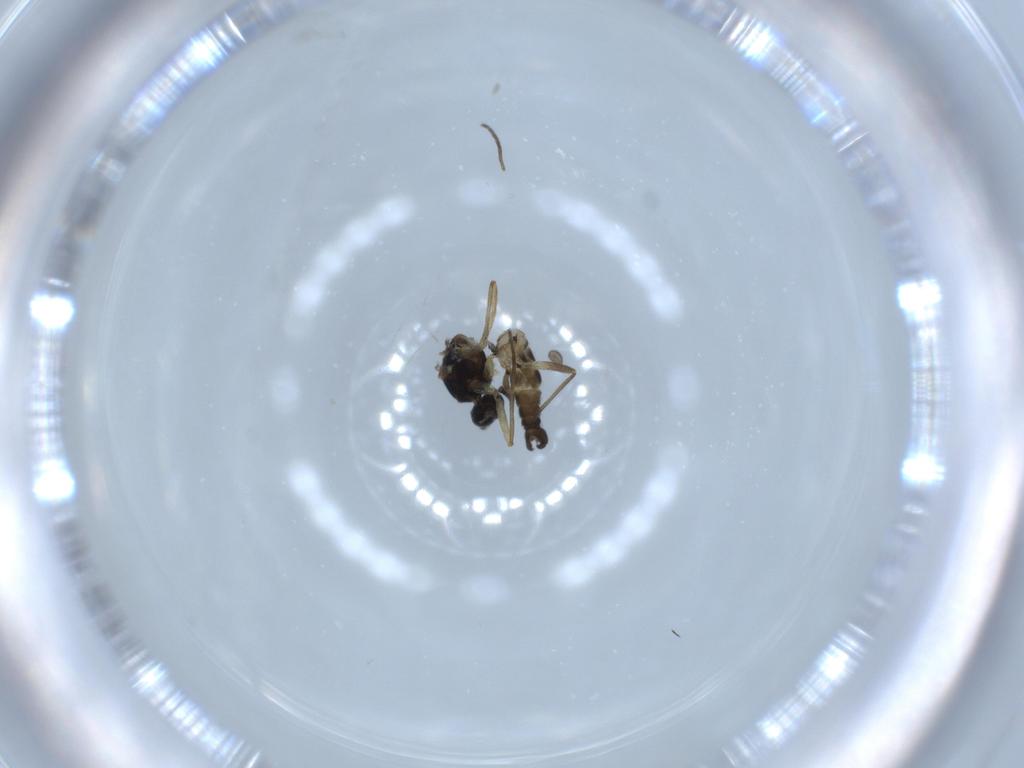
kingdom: Animalia
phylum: Arthropoda
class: Insecta
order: Diptera
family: Sciaridae
